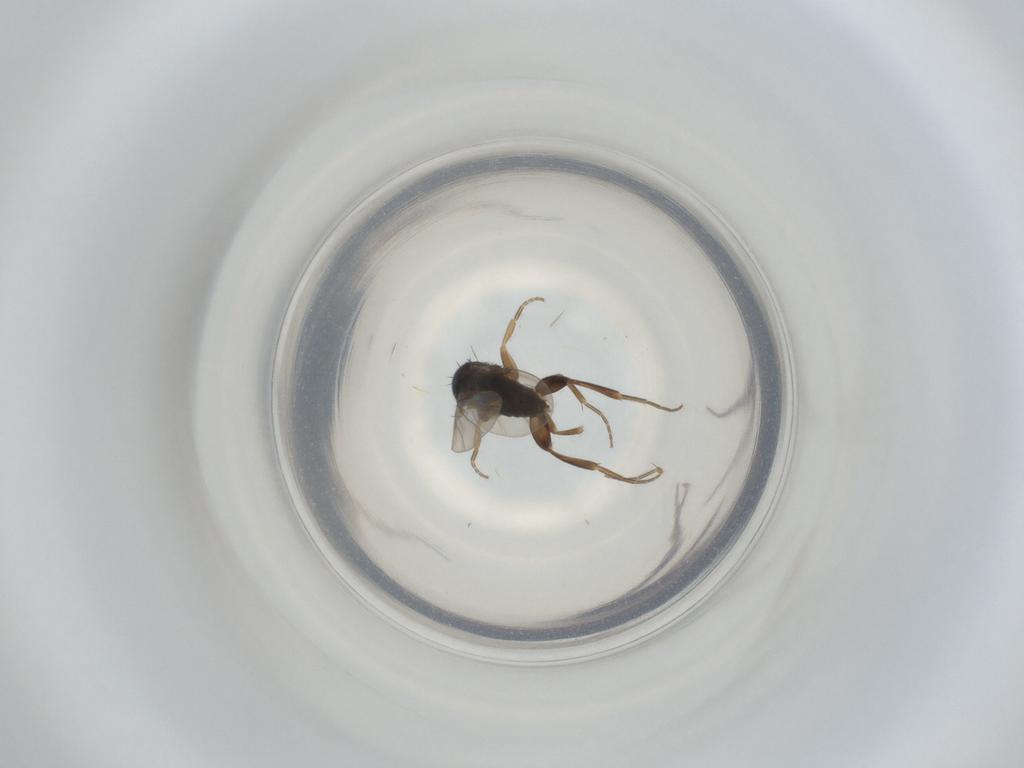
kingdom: Animalia
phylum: Arthropoda
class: Insecta
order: Diptera
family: Phoridae
